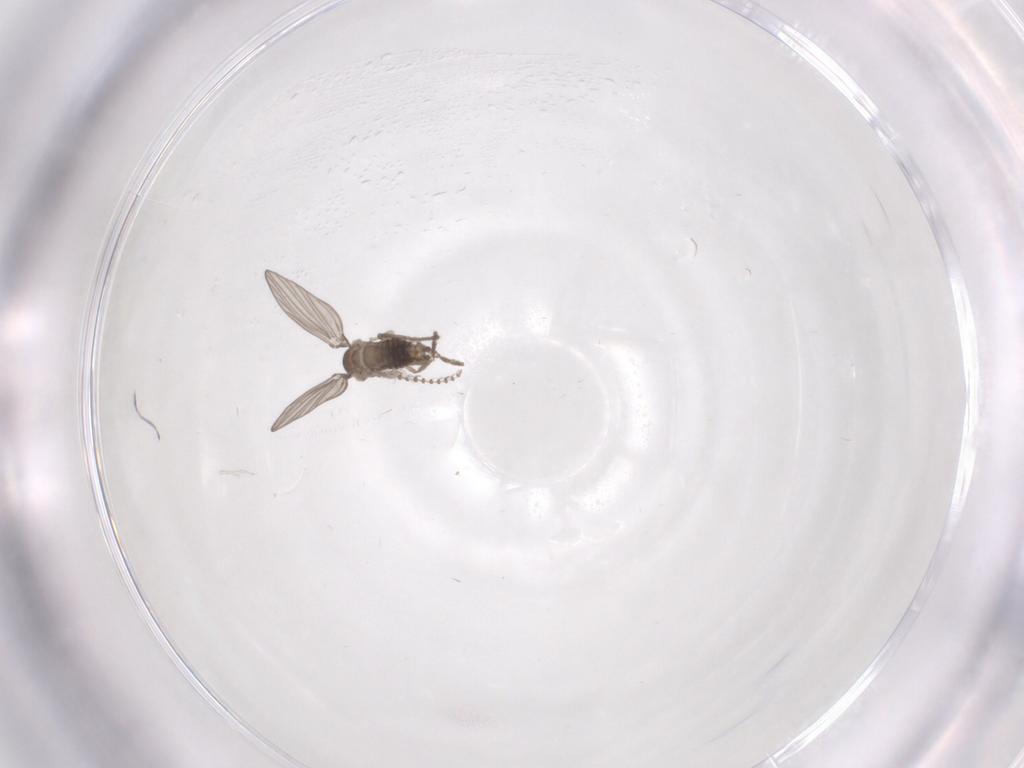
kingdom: Animalia
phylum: Arthropoda
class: Insecta
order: Diptera
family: Psychodidae
